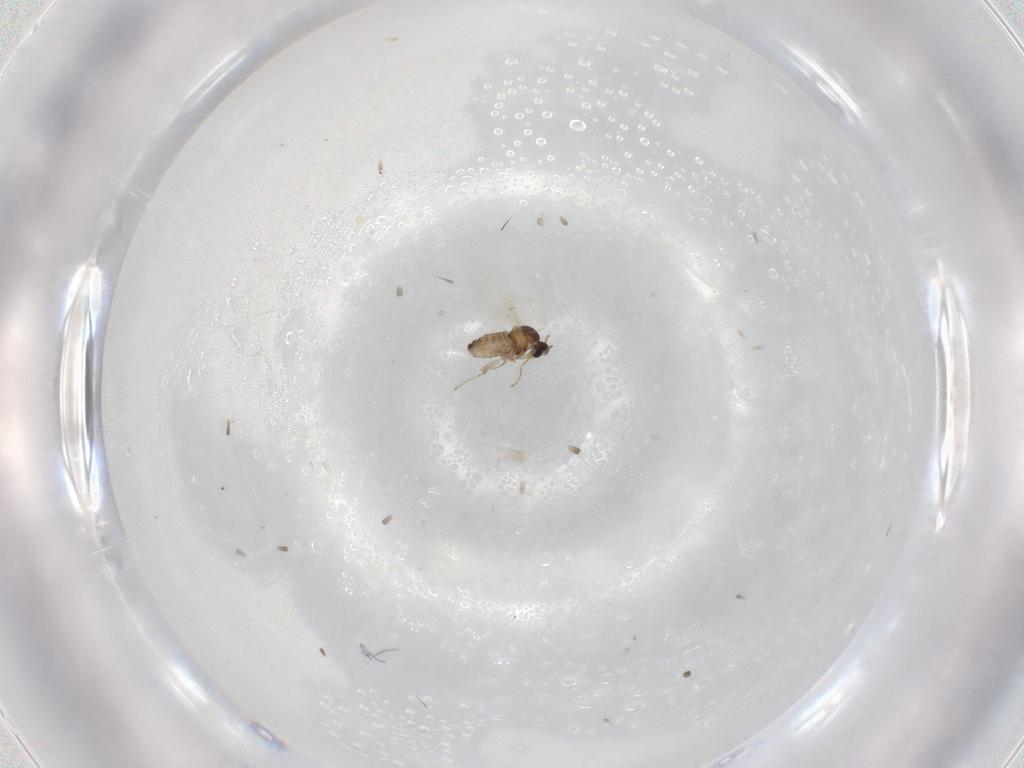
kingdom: Animalia
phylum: Arthropoda
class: Insecta
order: Diptera
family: Cecidomyiidae
